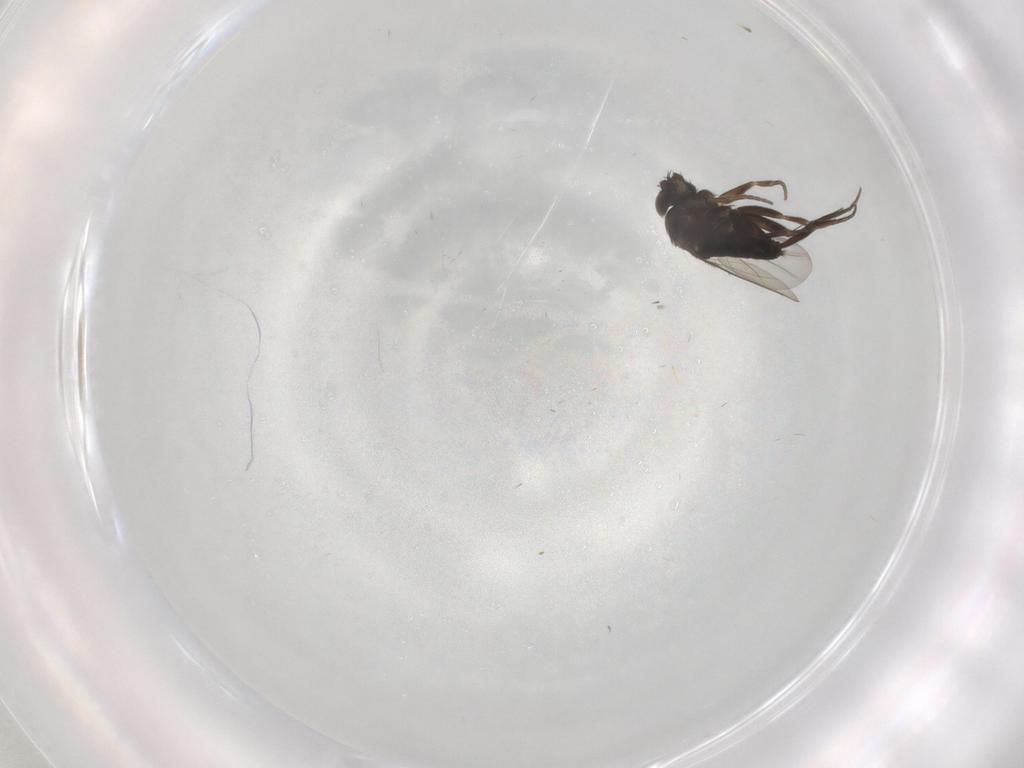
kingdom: Animalia
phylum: Arthropoda
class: Insecta
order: Diptera
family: Phoridae
